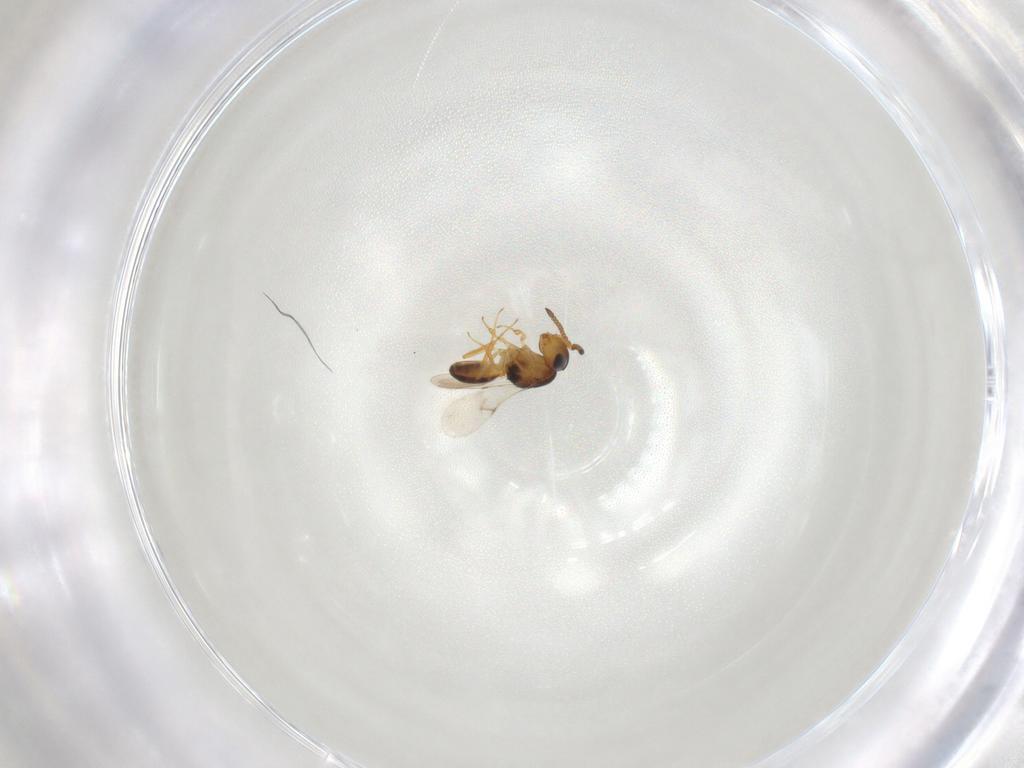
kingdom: Animalia
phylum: Arthropoda
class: Insecta
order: Hymenoptera
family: Scelionidae
